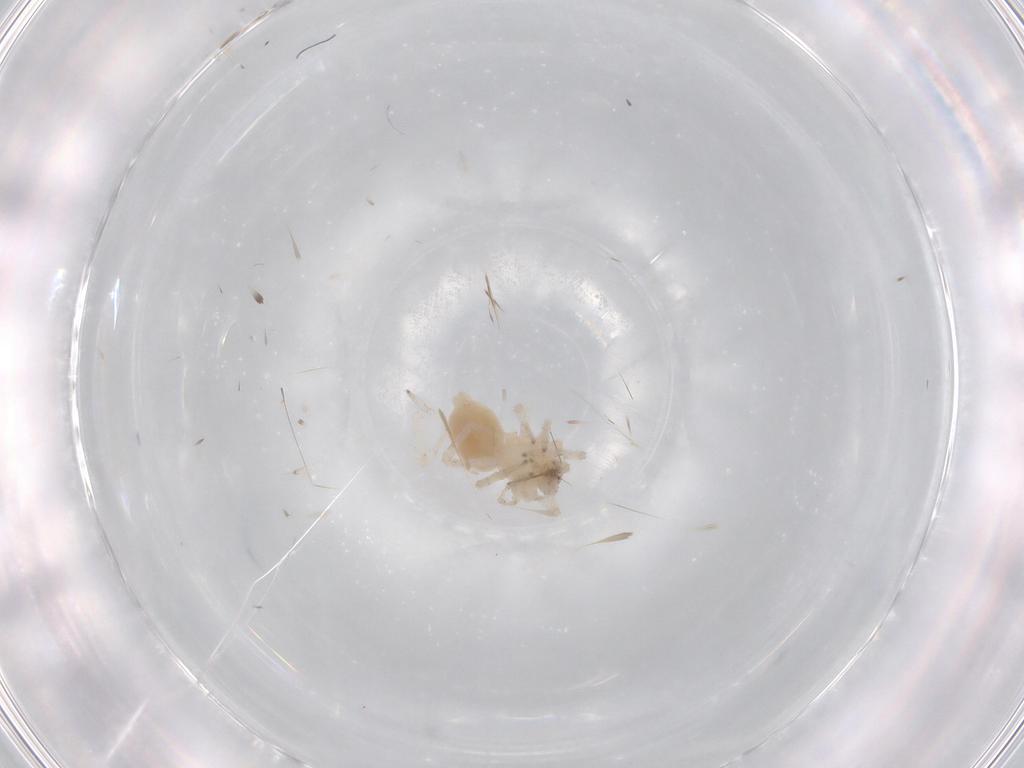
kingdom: Animalia
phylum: Arthropoda
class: Arachnida
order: Araneae
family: Anyphaenidae
